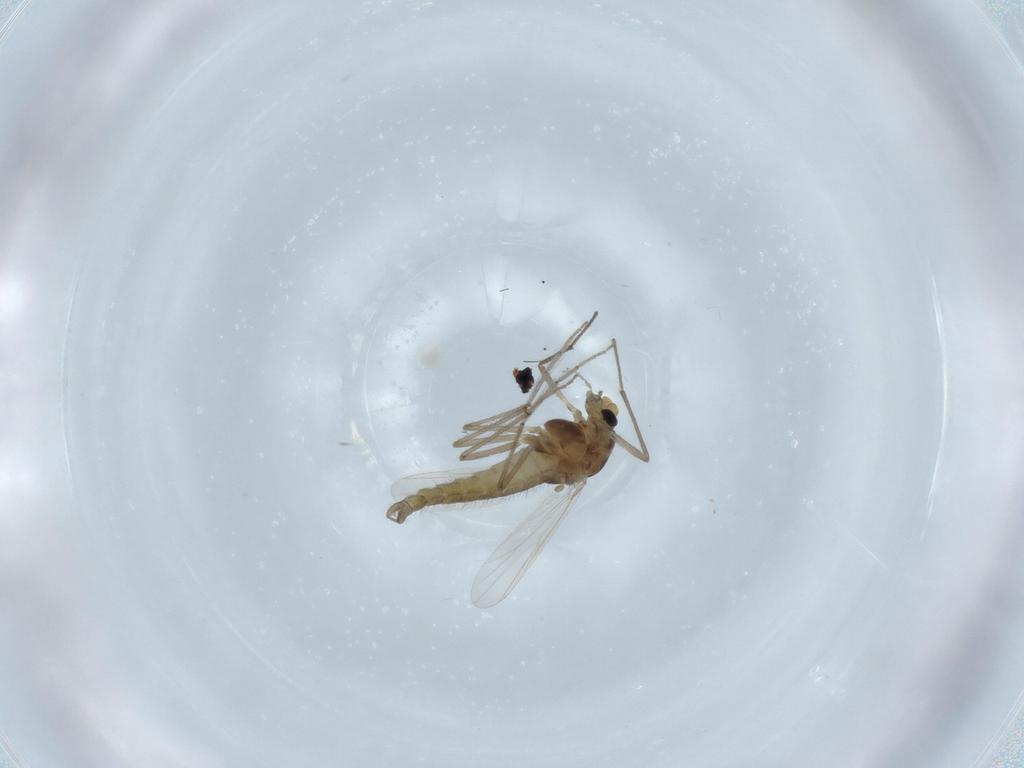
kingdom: Animalia
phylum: Arthropoda
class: Insecta
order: Diptera
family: Chironomidae
